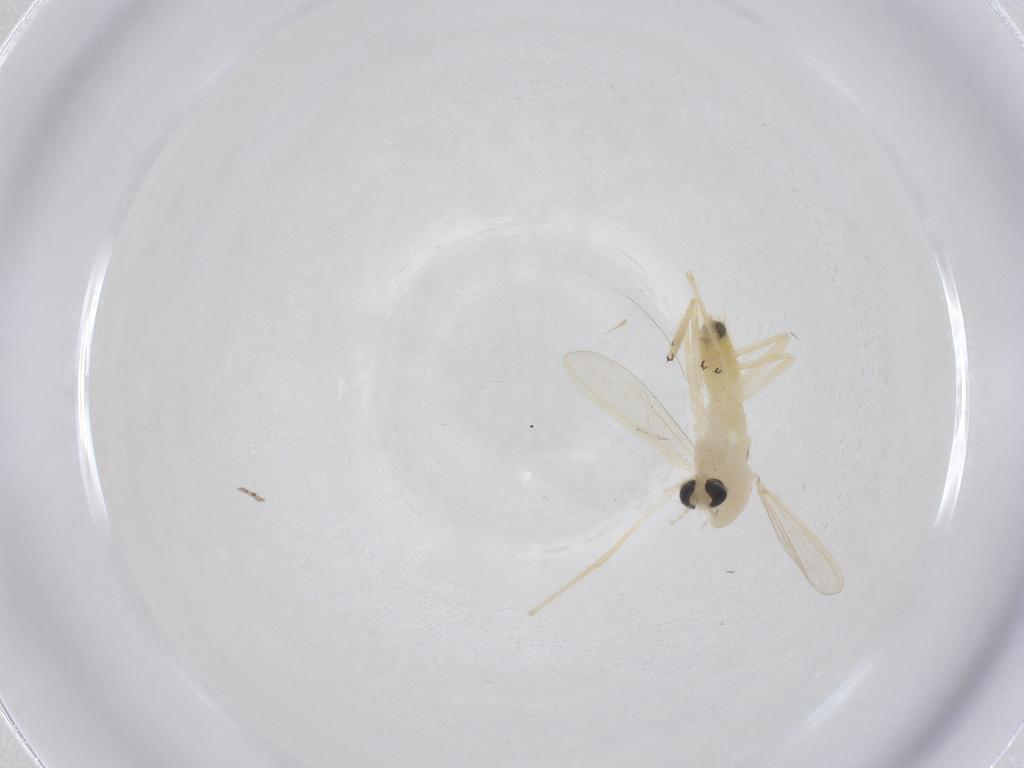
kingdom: Animalia
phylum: Arthropoda
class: Insecta
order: Diptera
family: Chironomidae
